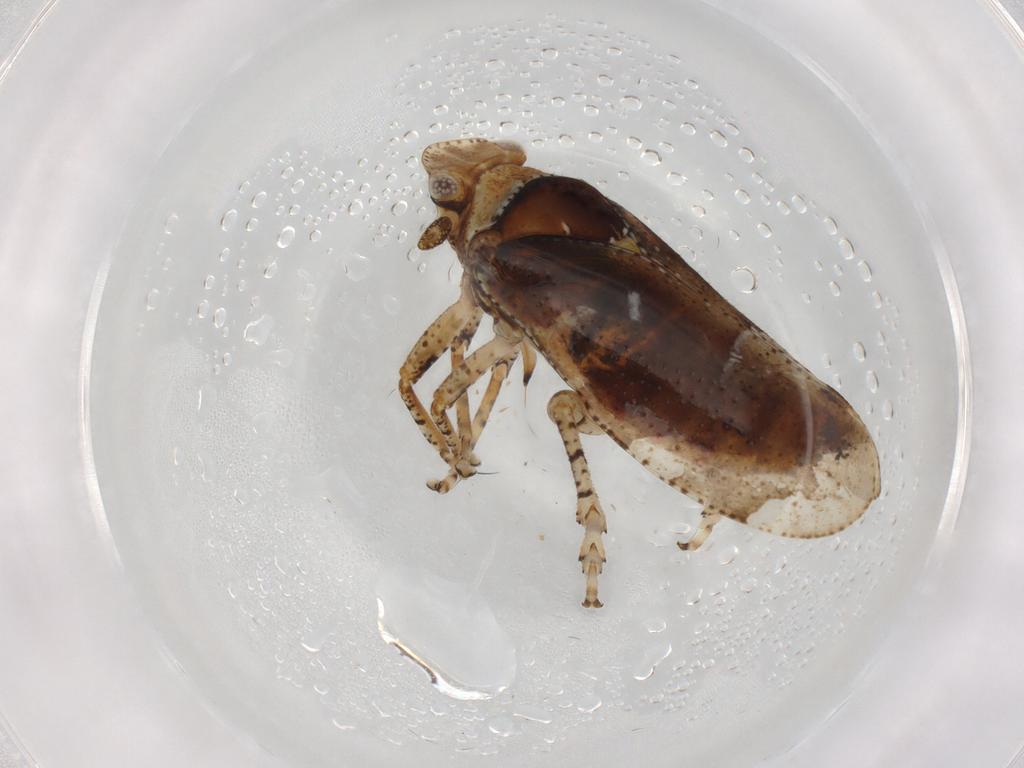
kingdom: Animalia
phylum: Arthropoda
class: Insecta
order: Hemiptera
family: Tettigometridae
